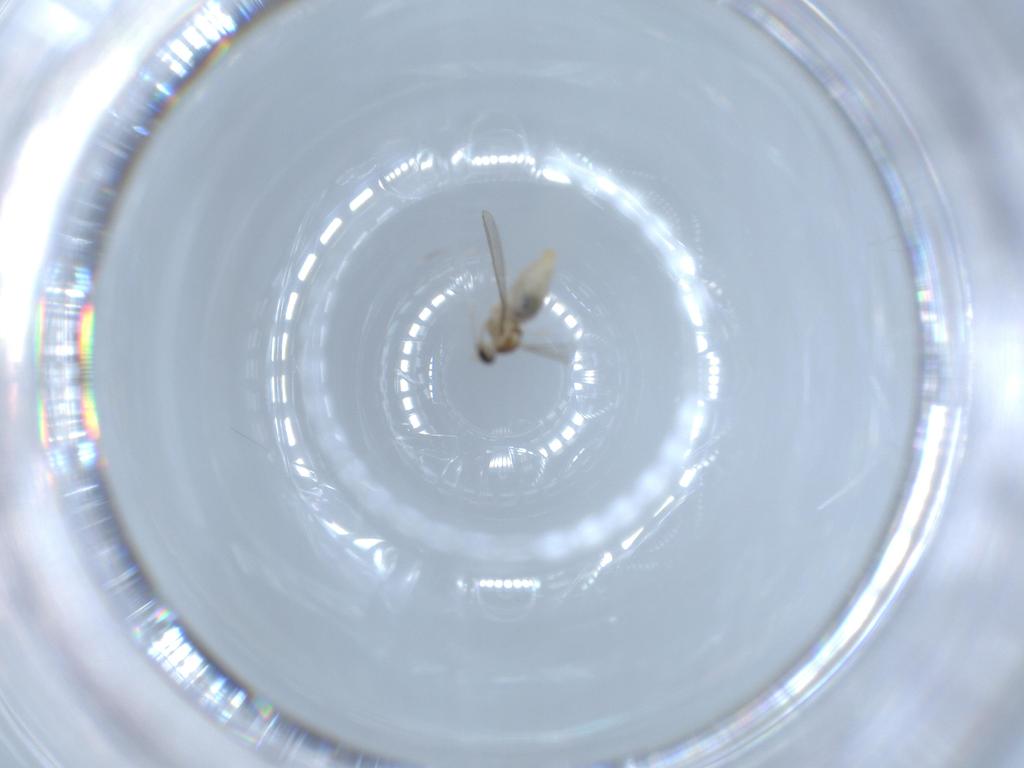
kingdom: Animalia
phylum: Arthropoda
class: Insecta
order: Diptera
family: Cecidomyiidae
